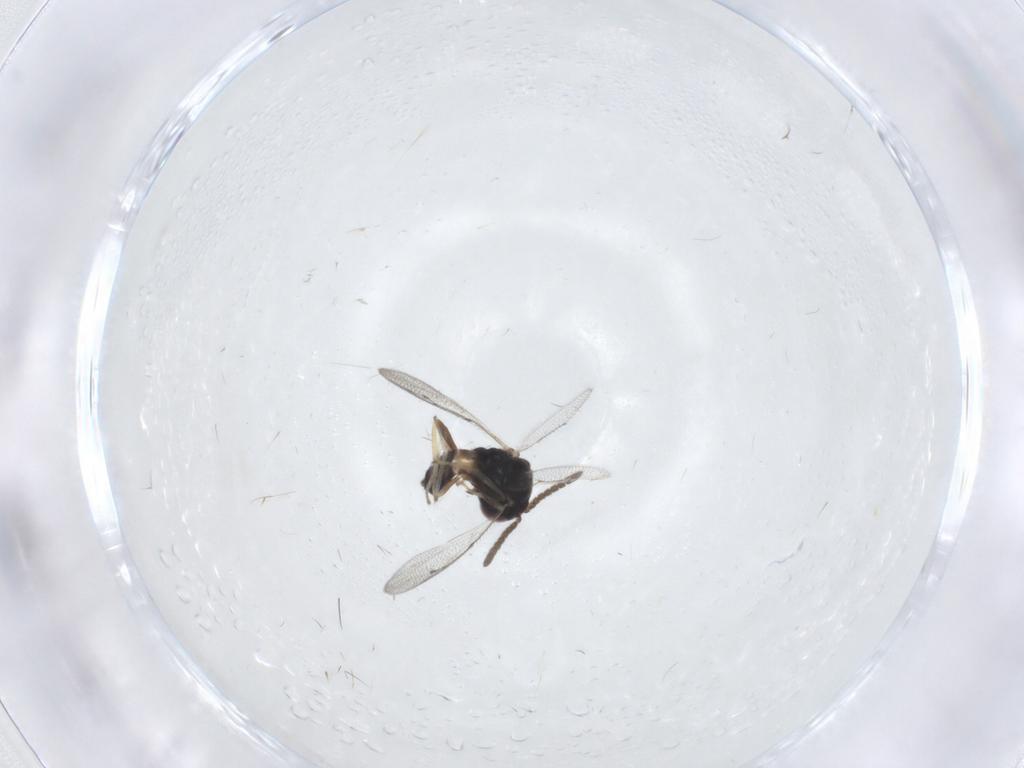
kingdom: Animalia
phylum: Arthropoda
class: Insecta
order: Hymenoptera
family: Pteromalidae
